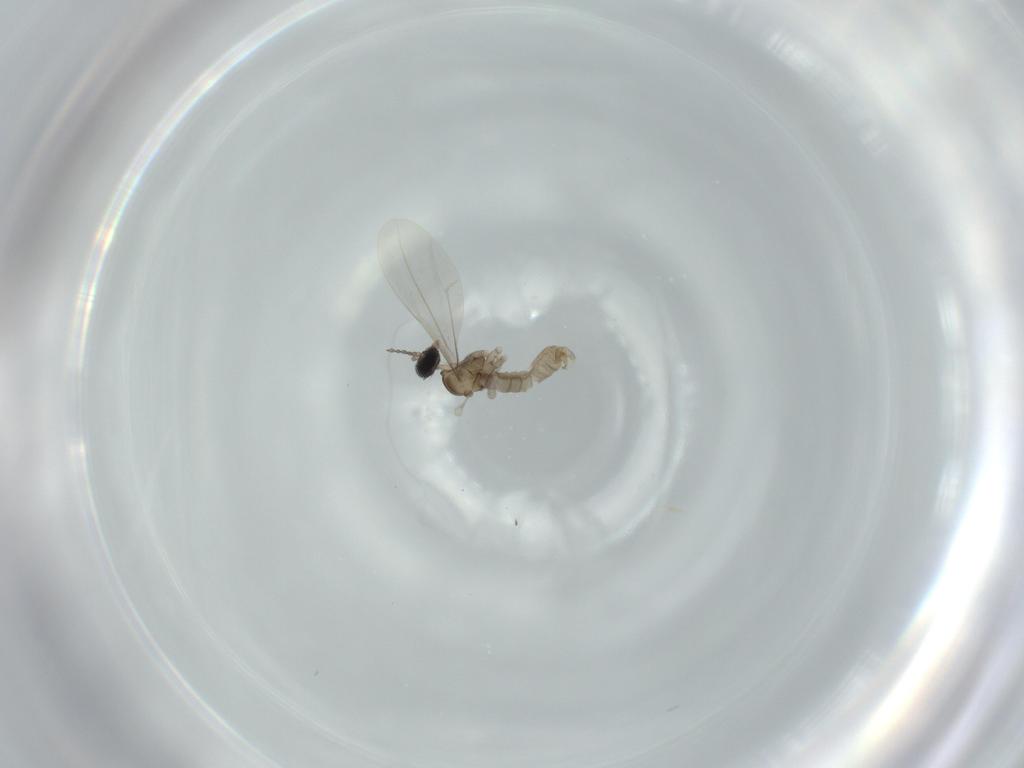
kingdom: Animalia
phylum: Arthropoda
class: Insecta
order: Diptera
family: Cecidomyiidae
